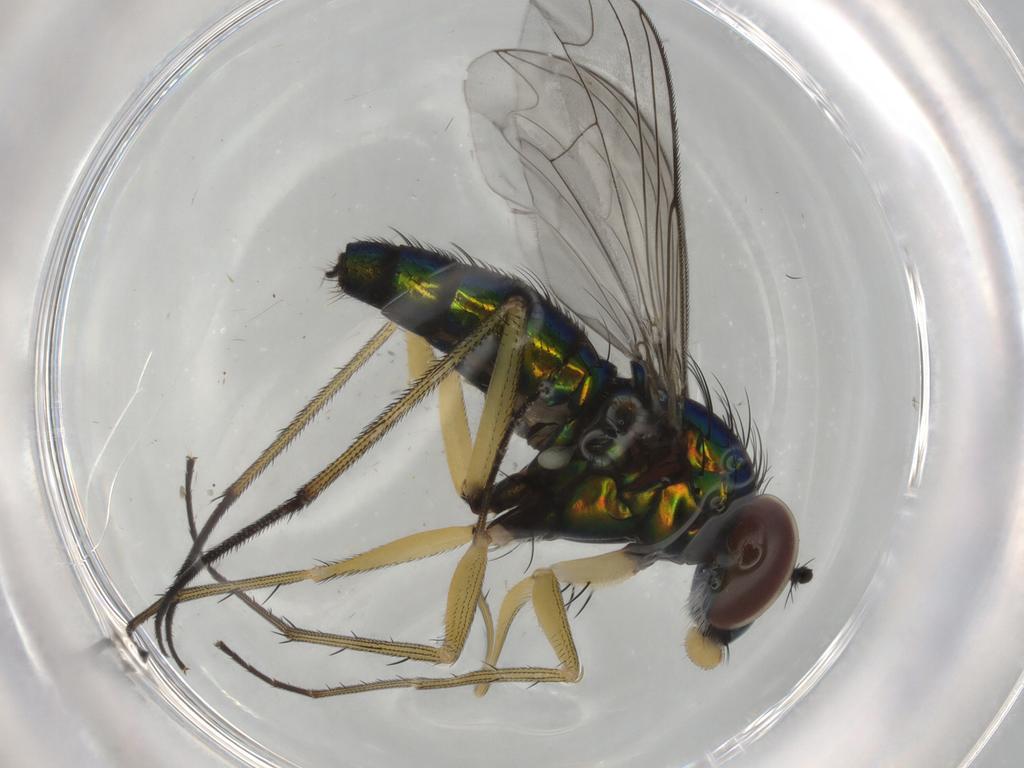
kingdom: Animalia
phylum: Arthropoda
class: Insecta
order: Diptera
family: Dolichopodidae
